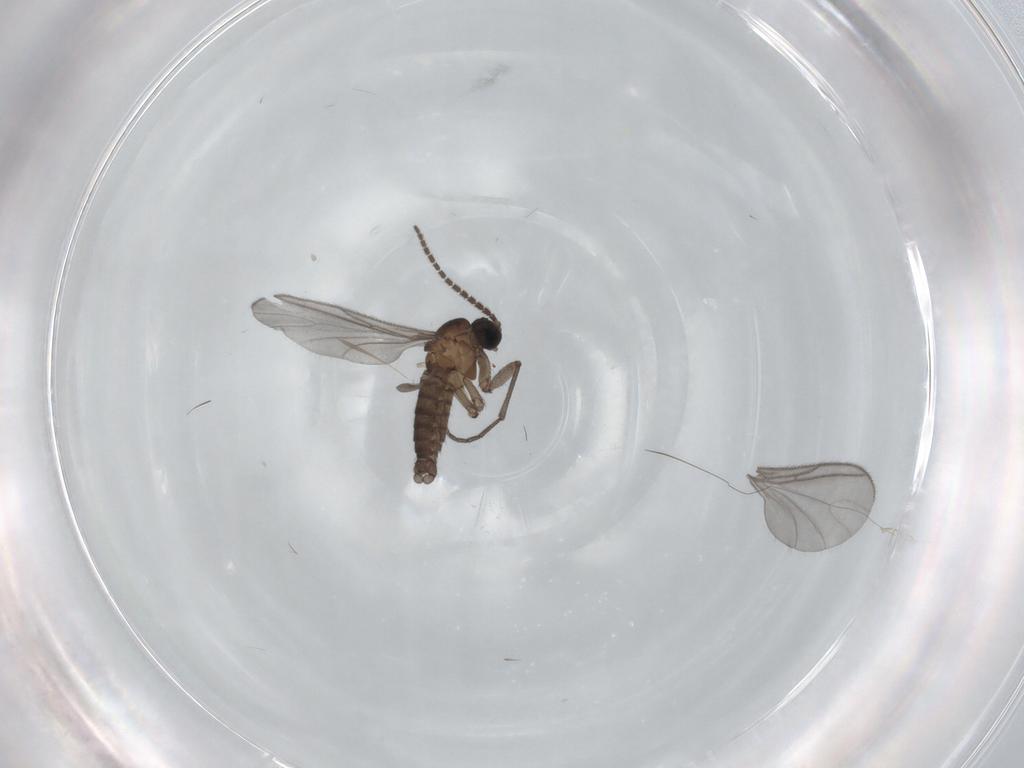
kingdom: Animalia
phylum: Arthropoda
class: Insecta
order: Diptera
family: Sciaridae
